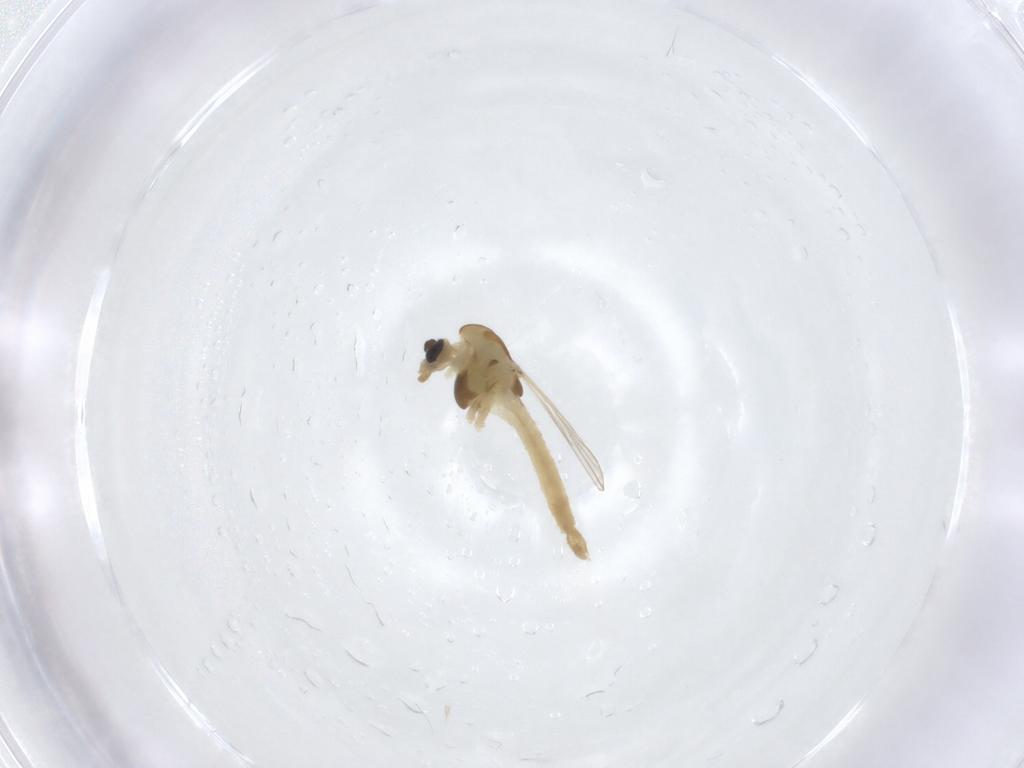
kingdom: Animalia
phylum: Arthropoda
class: Insecta
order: Diptera
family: Chironomidae
